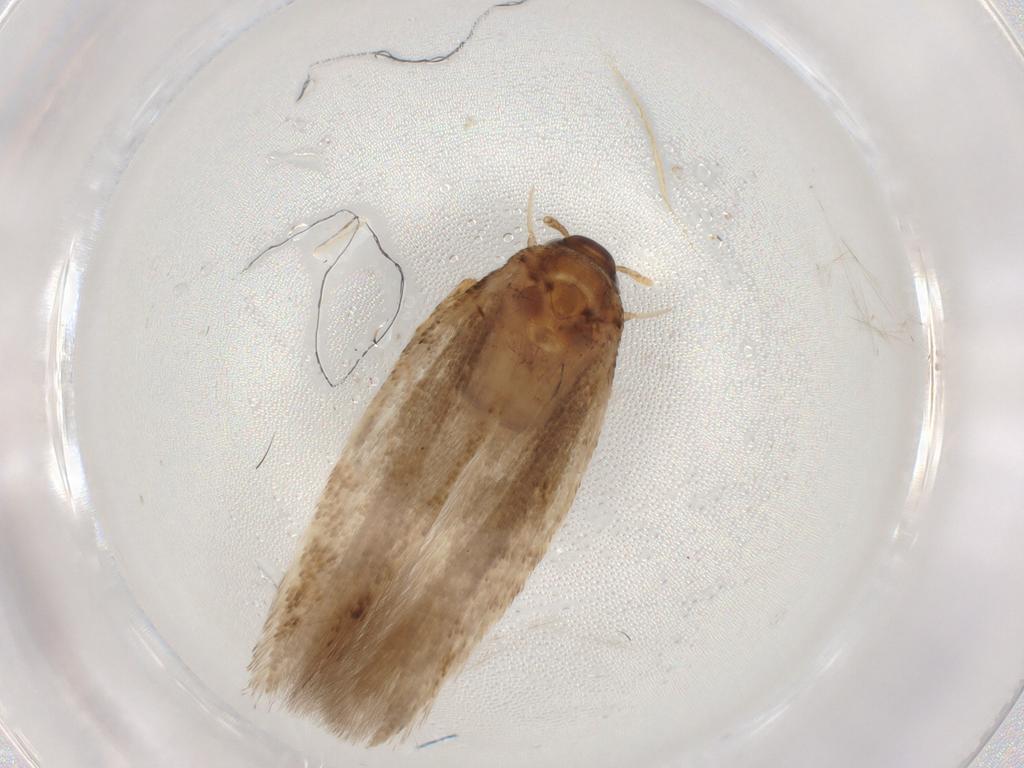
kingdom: Animalia
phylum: Arthropoda
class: Insecta
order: Lepidoptera
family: Gelechiidae
